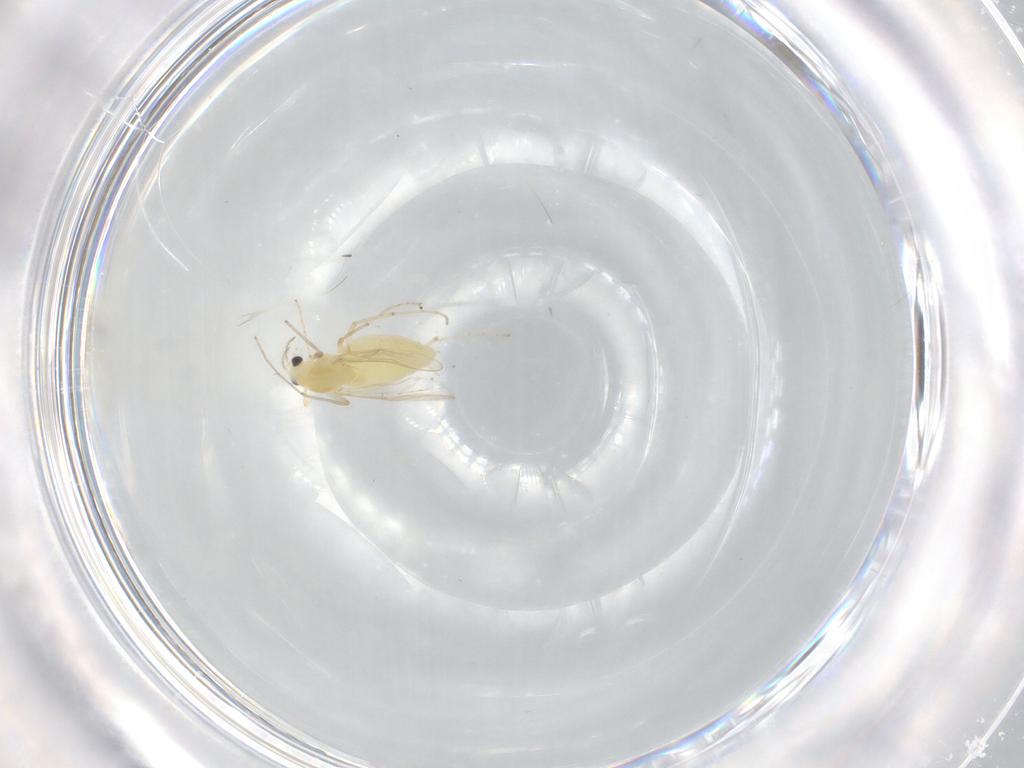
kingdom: Animalia
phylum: Arthropoda
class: Insecta
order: Diptera
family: Chironomidae
